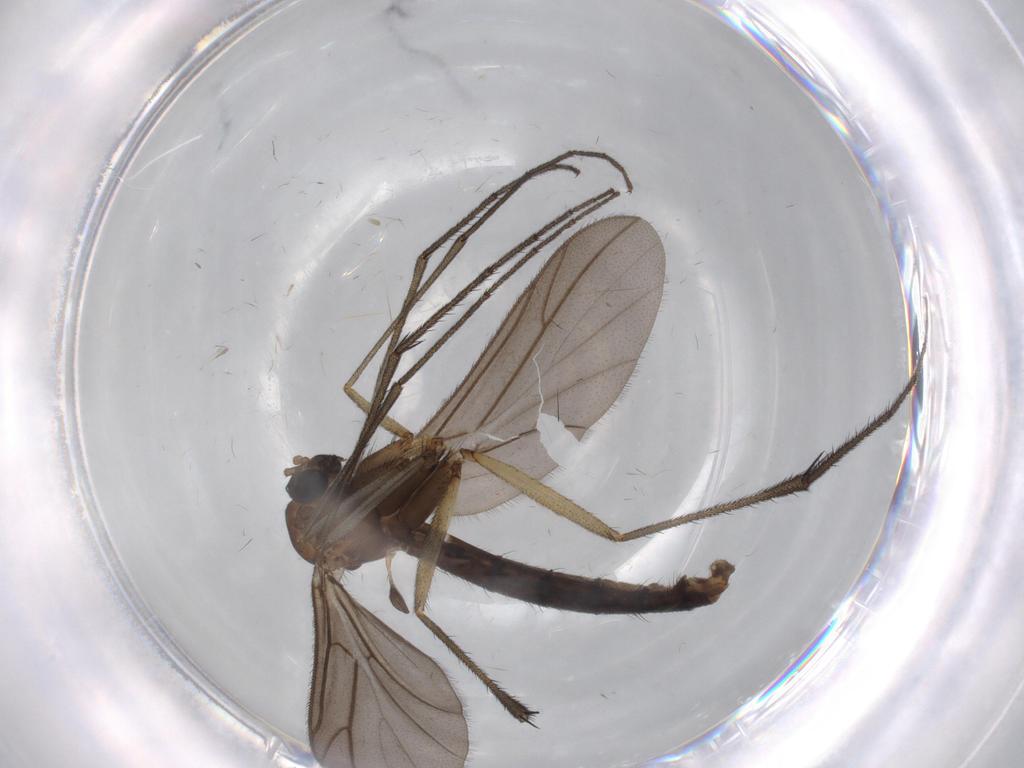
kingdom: Animalia
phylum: Arthropoda
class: Insecta
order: Diptera
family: Ditomyiidae
